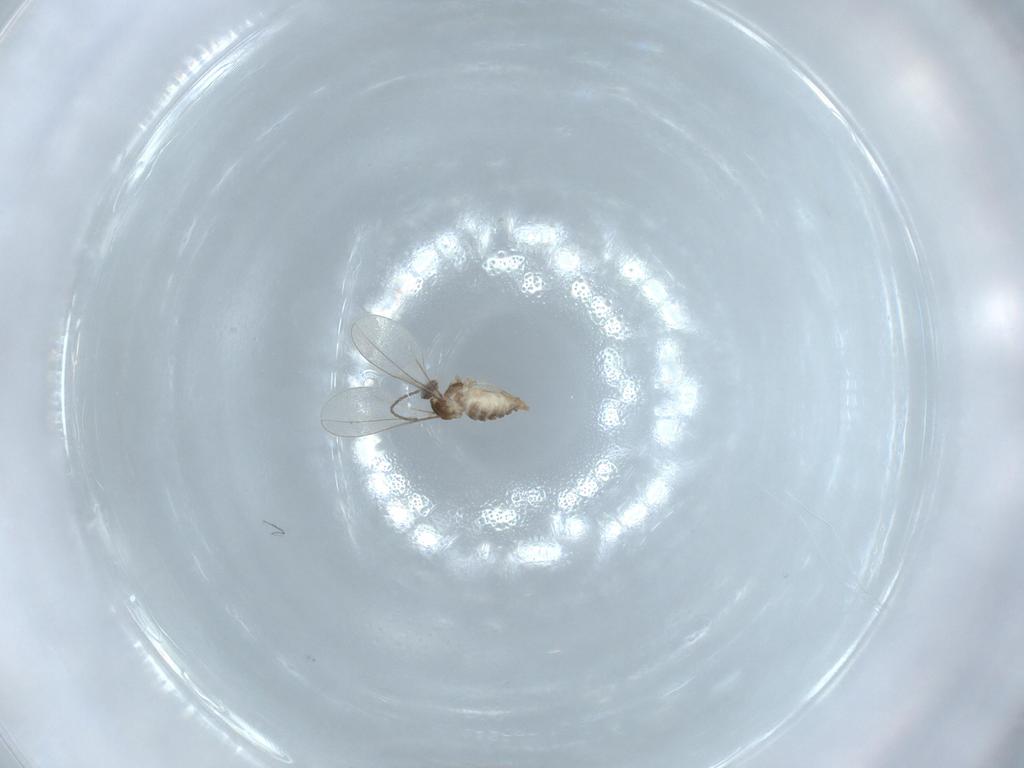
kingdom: Animalia
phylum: Arthropoda
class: Insecta
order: Diptera
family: Cecidomyiidae
